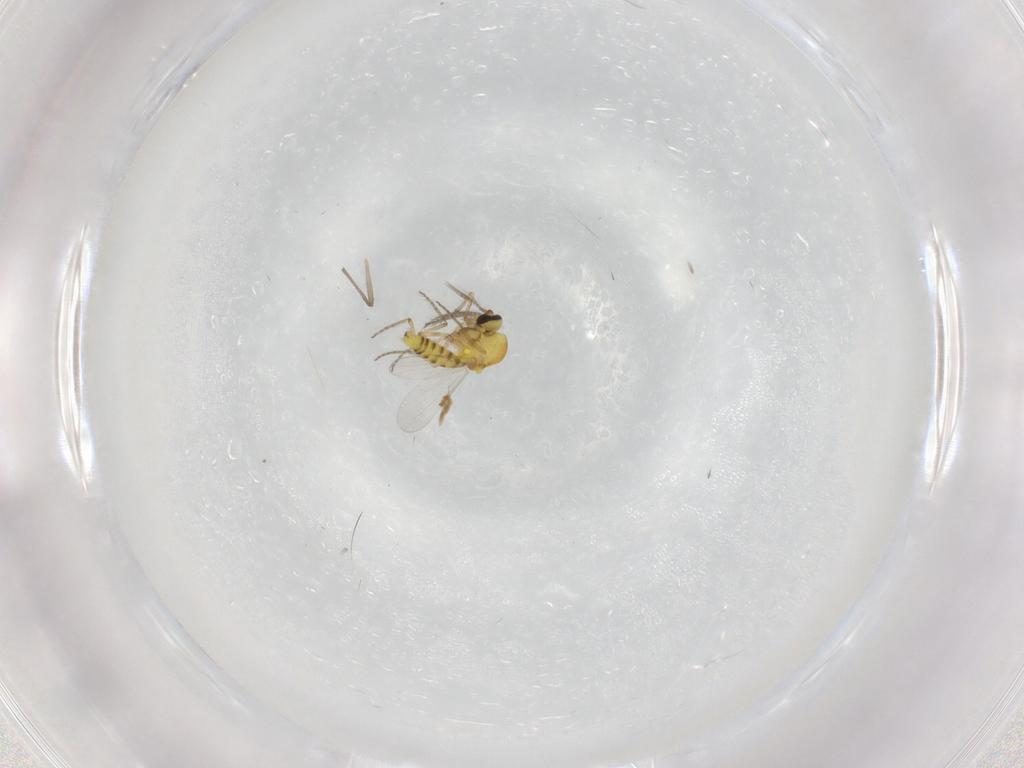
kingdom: Animalia
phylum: Arthropoda
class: Insecta
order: Diptera
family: Ceratopogonidae
